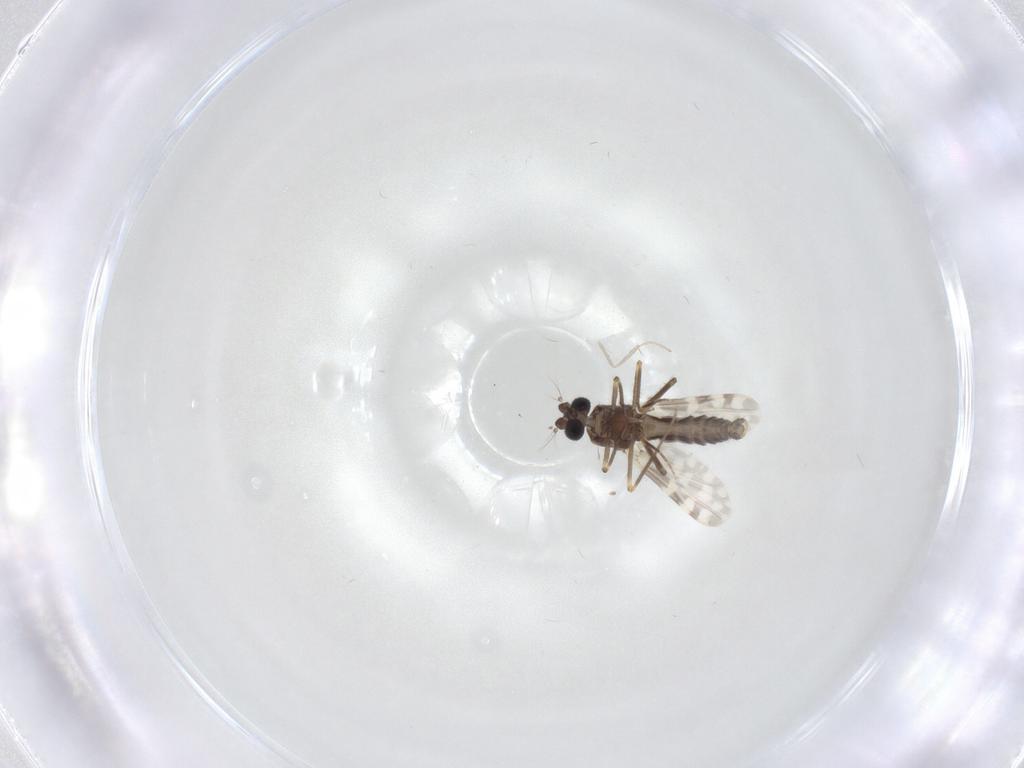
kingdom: Animalia
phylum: Arthropoda
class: Insecta
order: Diptera
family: Ceratopogonidae
